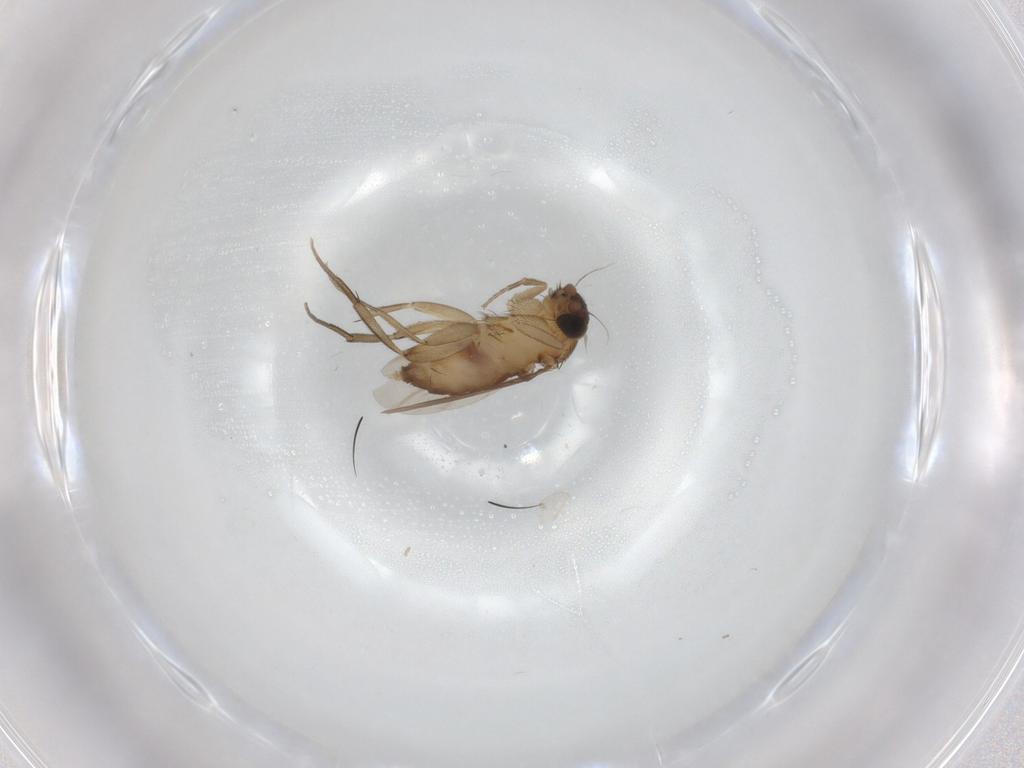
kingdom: Animalia
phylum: Arthropoda
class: Insecta
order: Diptera
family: Phoridae
